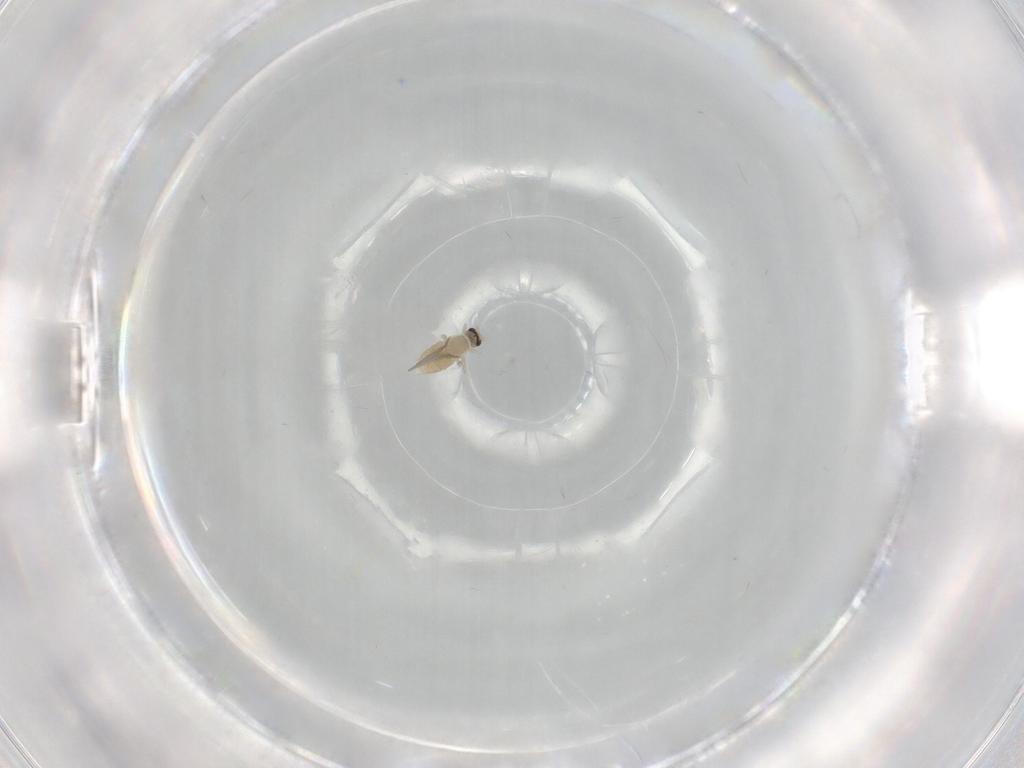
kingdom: Animalia
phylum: Arthropoda
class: Insecta
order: Diptera
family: Cecidomyiidae
